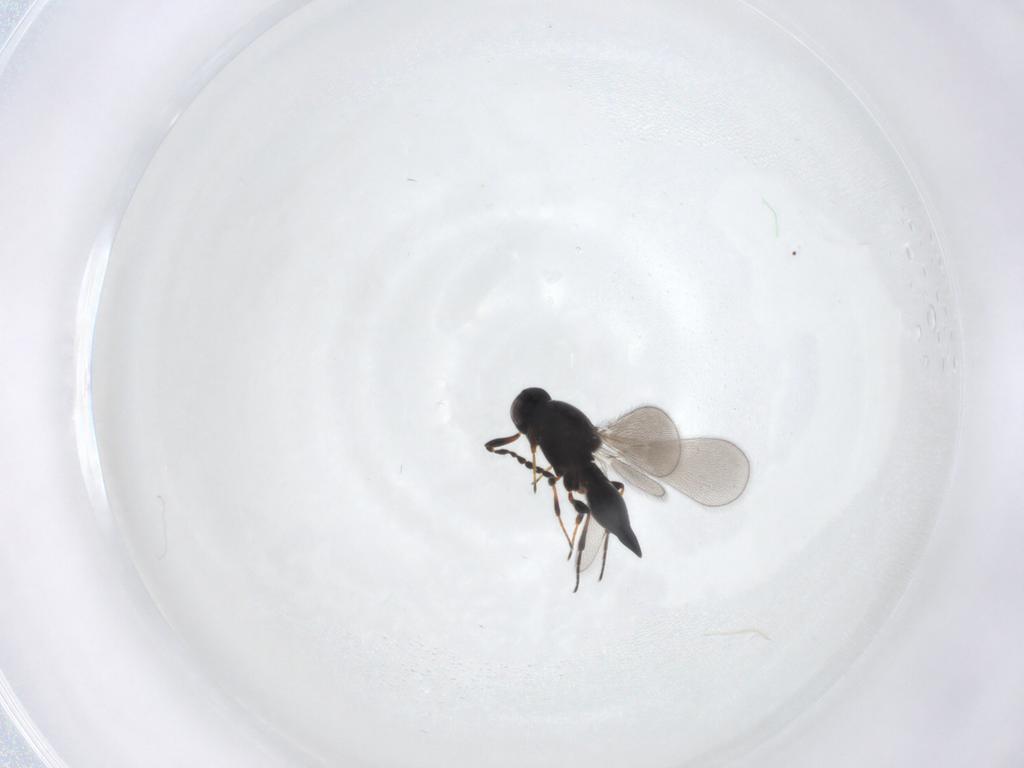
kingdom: Animalia
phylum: Arthropoda
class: Insecta
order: Hymenoptera
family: Platygastridae
